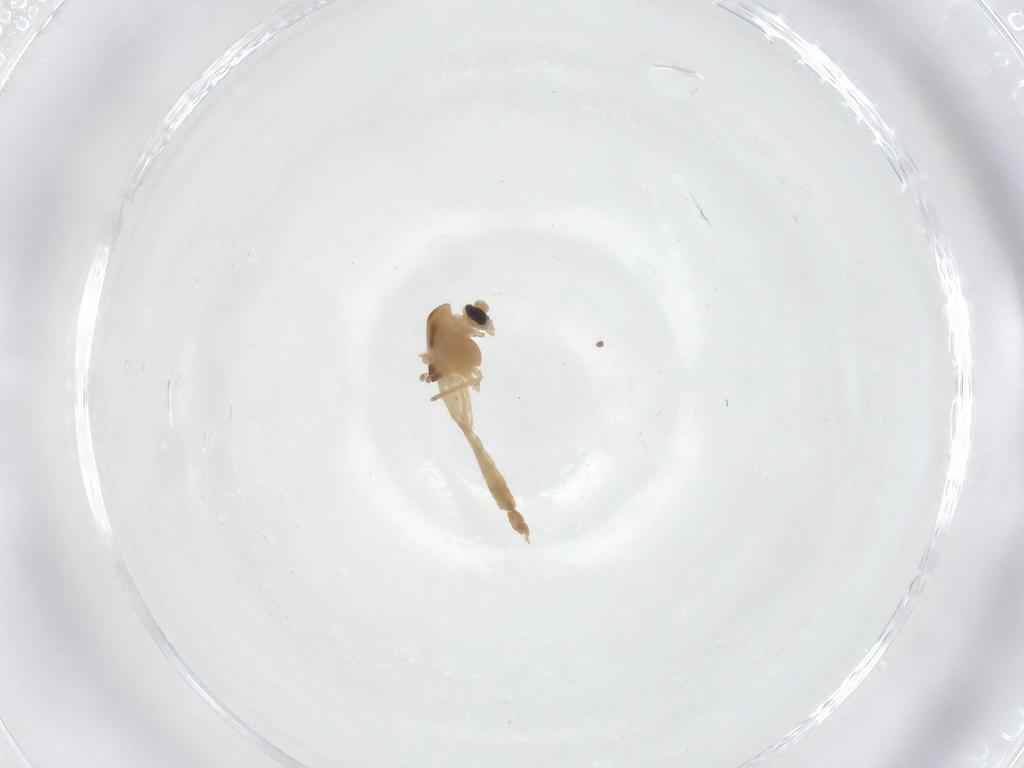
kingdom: Animalia
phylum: Arthropoda
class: Insecta
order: Diptera
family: Chironomidae
